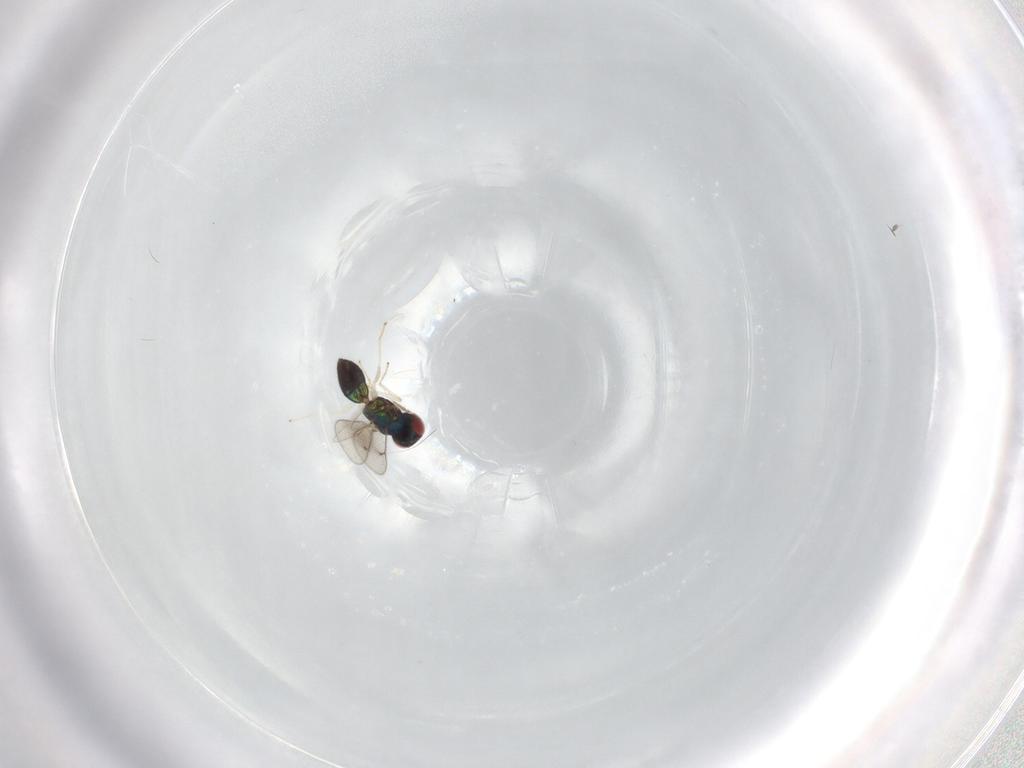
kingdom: Animalia
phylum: Arthropoda
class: Insecta
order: Hymenoptera
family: Eulophidae
